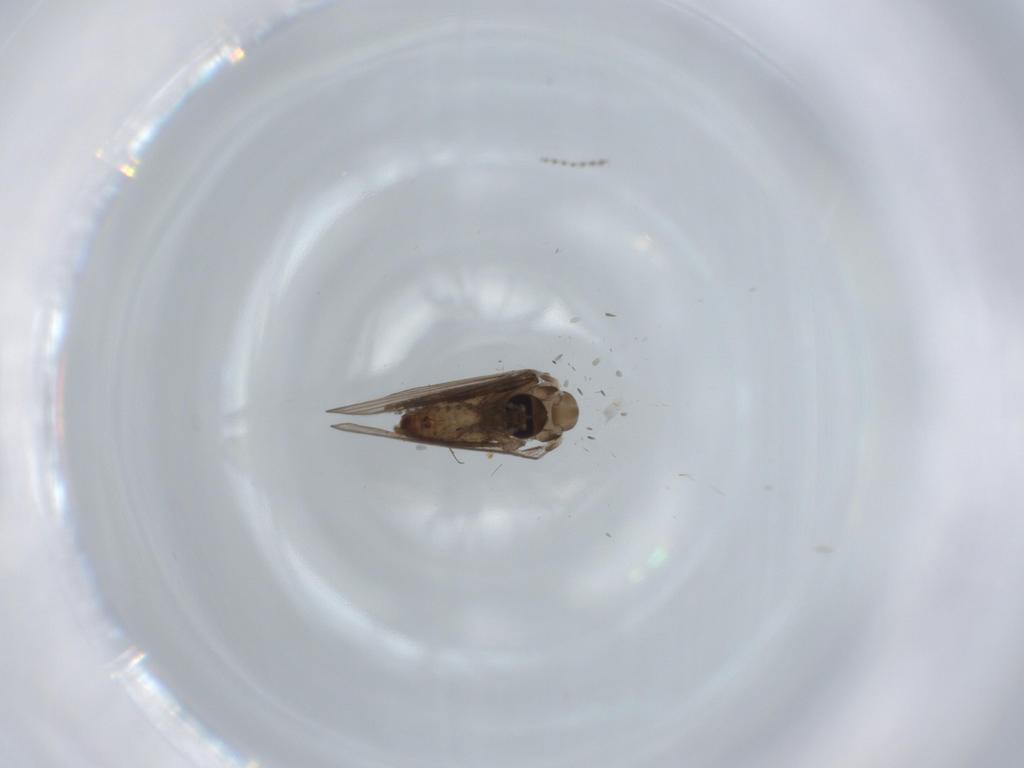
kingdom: Animalia
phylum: Arthropoda
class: Insecta
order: Diptera
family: Psychodidae
